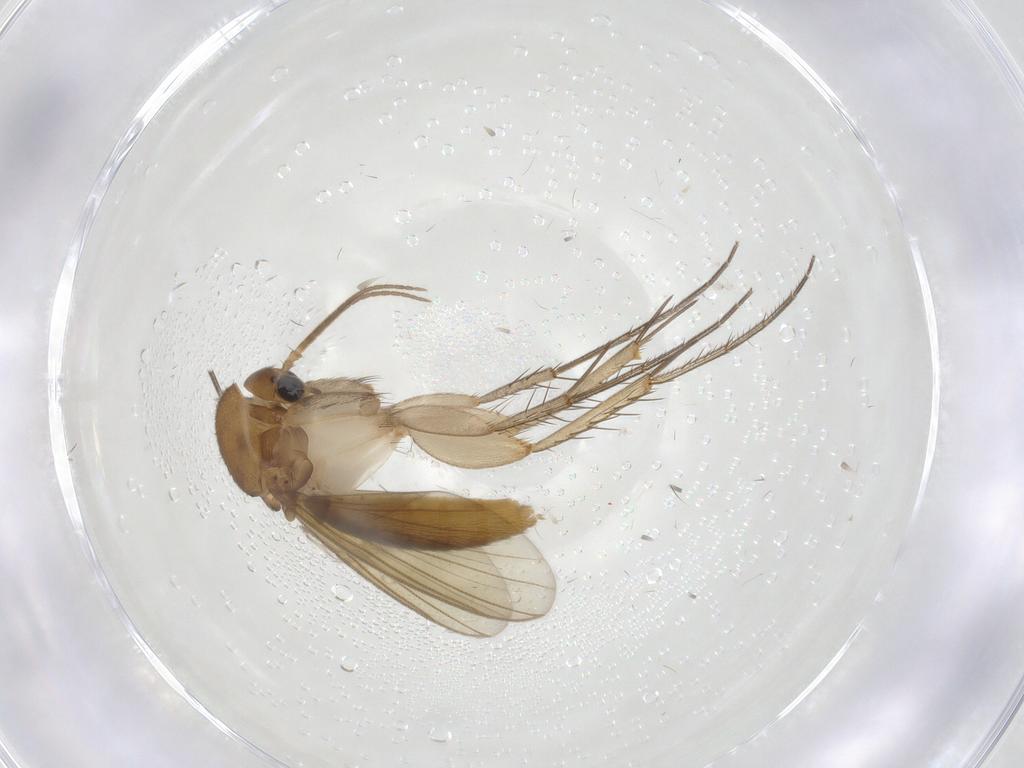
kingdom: Animalia
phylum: Arthropoda
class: Insecta
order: Diptera
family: Mycetophilidae
